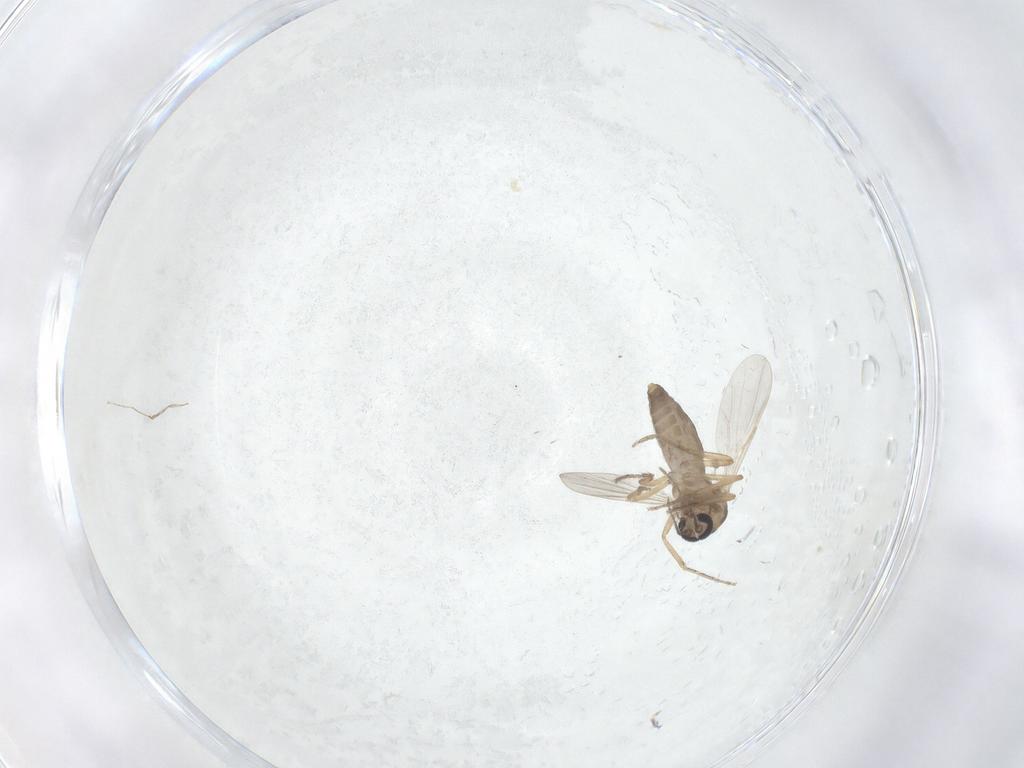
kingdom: Animalia
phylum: Arthropoda
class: Insecta
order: Diptera
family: Ceratopogonidae
